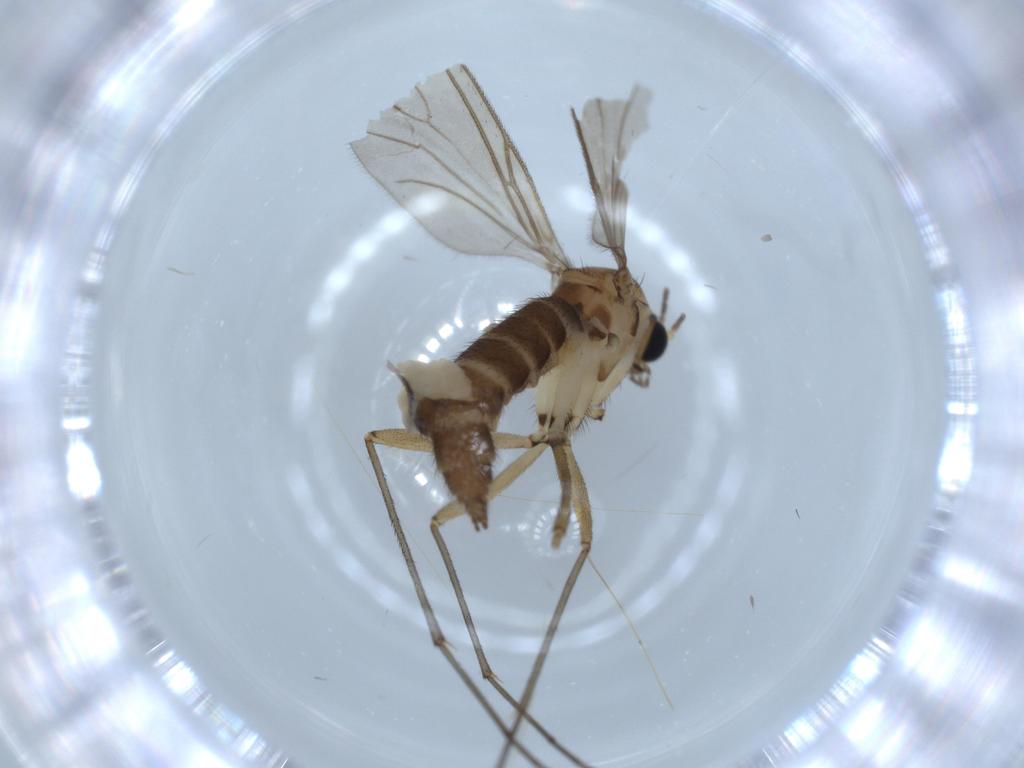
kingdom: Animalia
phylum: Arthropoda
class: Insecta
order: Diptera
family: Sciaridae
